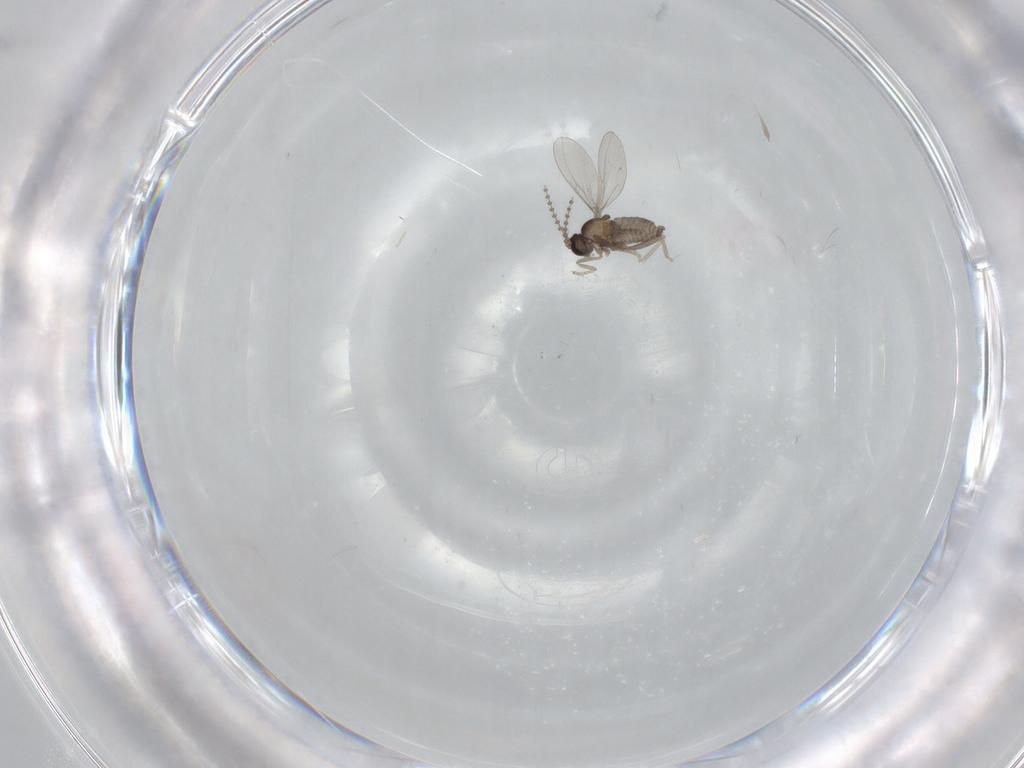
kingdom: Animalia
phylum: Arthropoda
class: Insecta
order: Diptera
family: Cecidomyiidae
